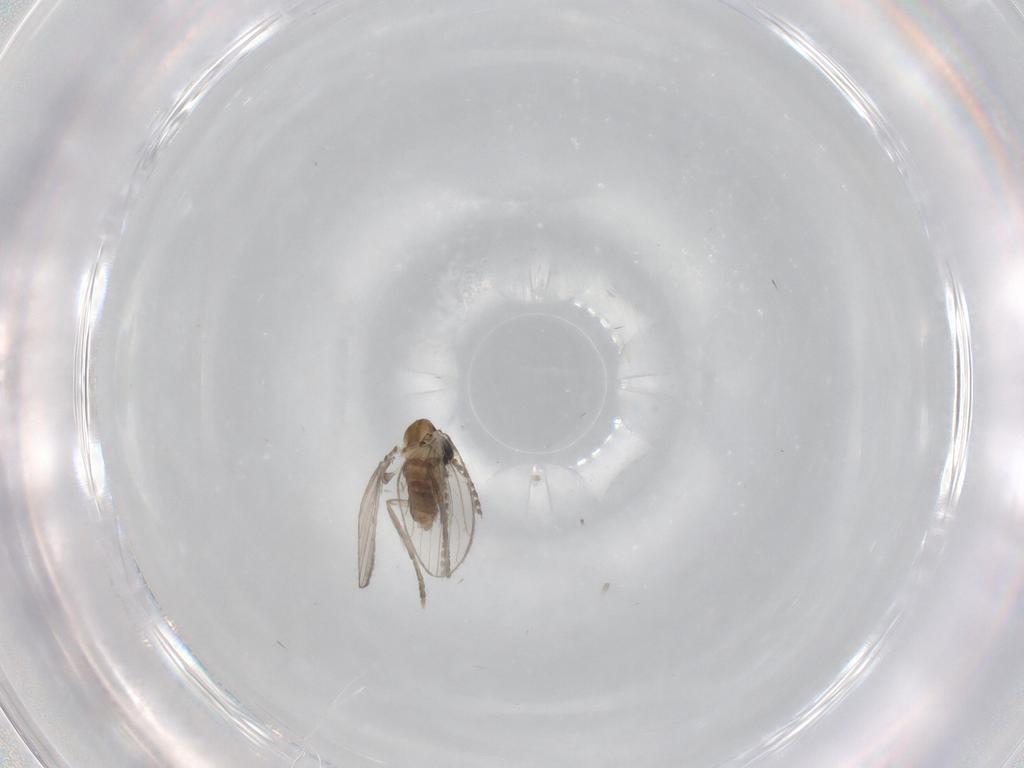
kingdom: Animalia
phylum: Arthropoda
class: Insecta
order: Diptera
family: Psychodidae
